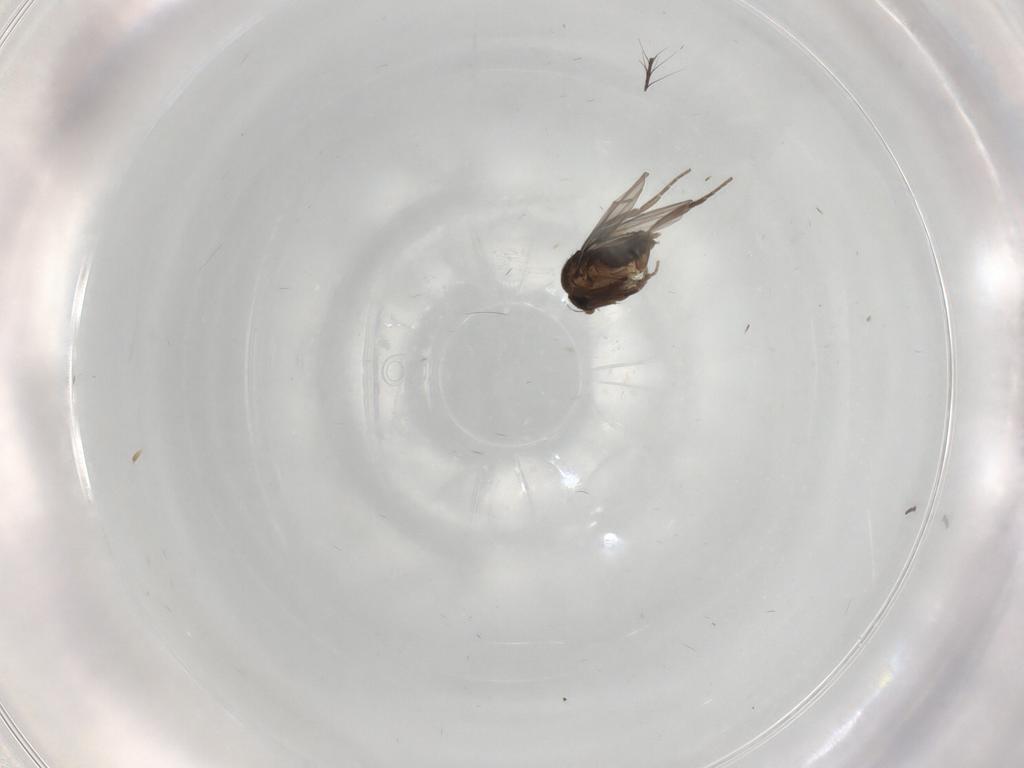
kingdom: Animalia
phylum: Arthropoda
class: Insecta
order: Diptera
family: Phoridae
